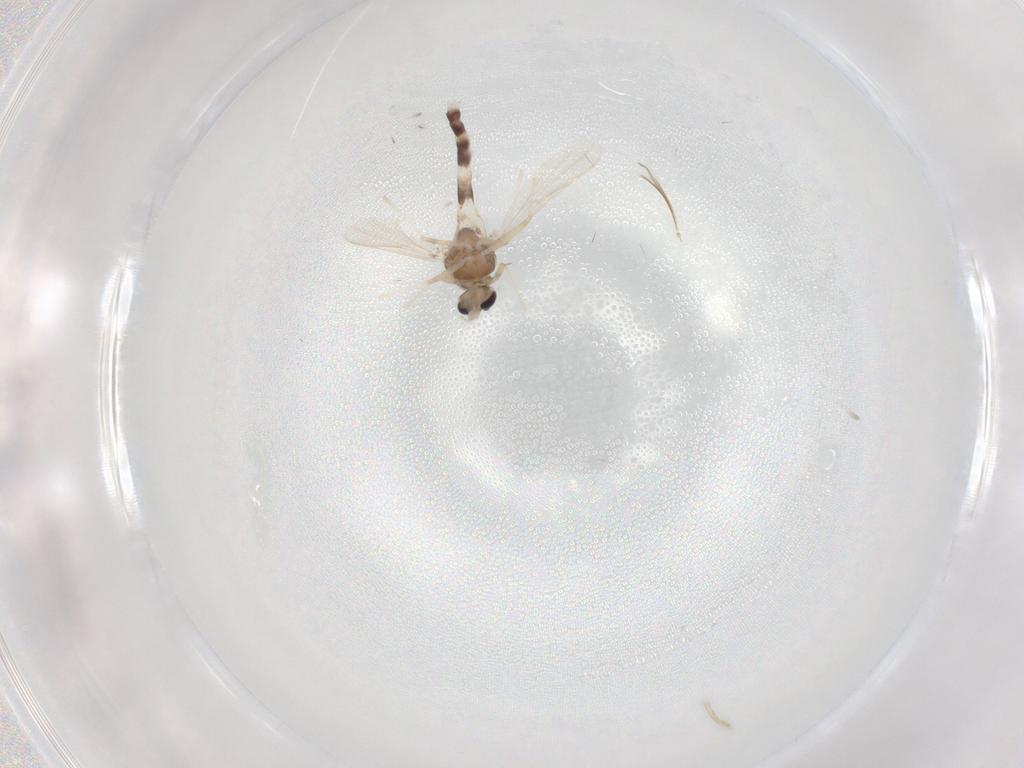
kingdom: Animalia
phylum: Arthropoda
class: Insecta
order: Diptera
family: Chironomidae
